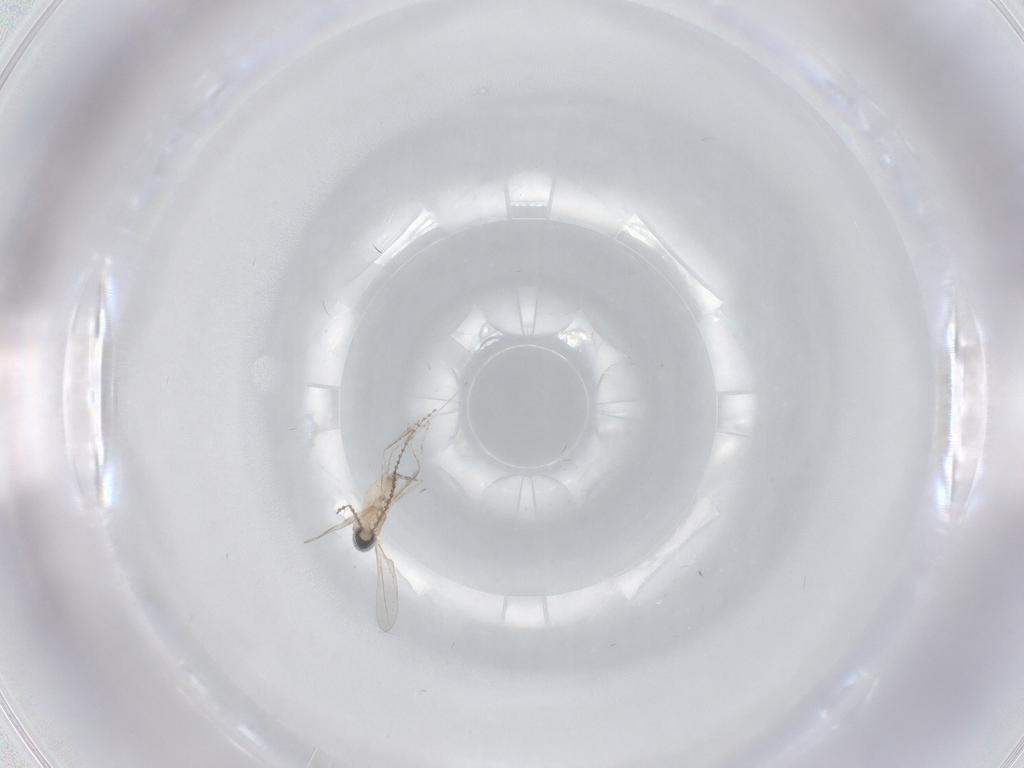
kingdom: Animalia
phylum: Arthropoda
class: Insecta
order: Diptera
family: Cecidomyiidae
